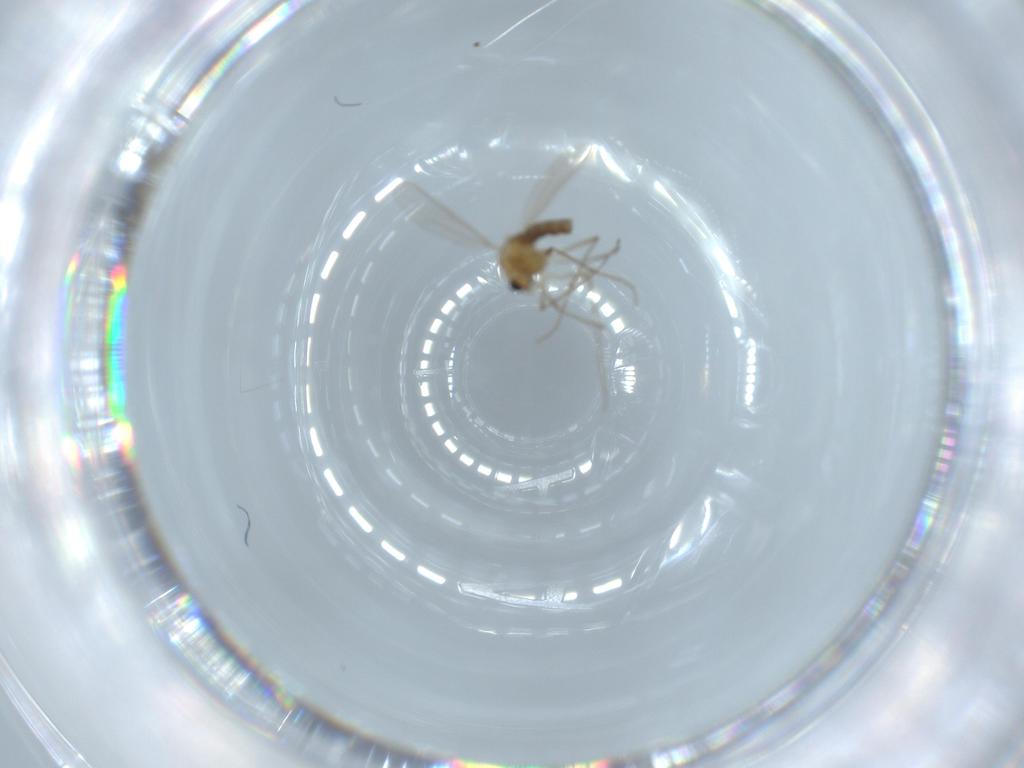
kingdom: Animalia
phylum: Arthropoda
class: Insecta
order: Diptera
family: Chironomidae
